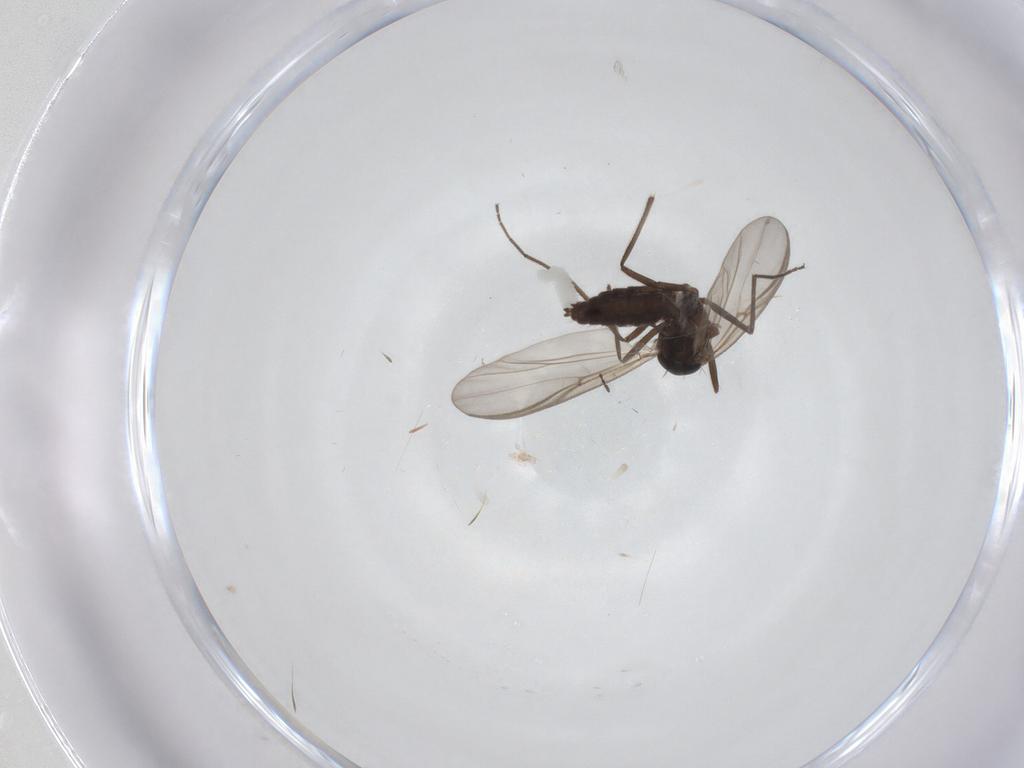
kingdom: Animalia
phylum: Arthropoda
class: Insecta
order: Diptera
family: Chironomidae
